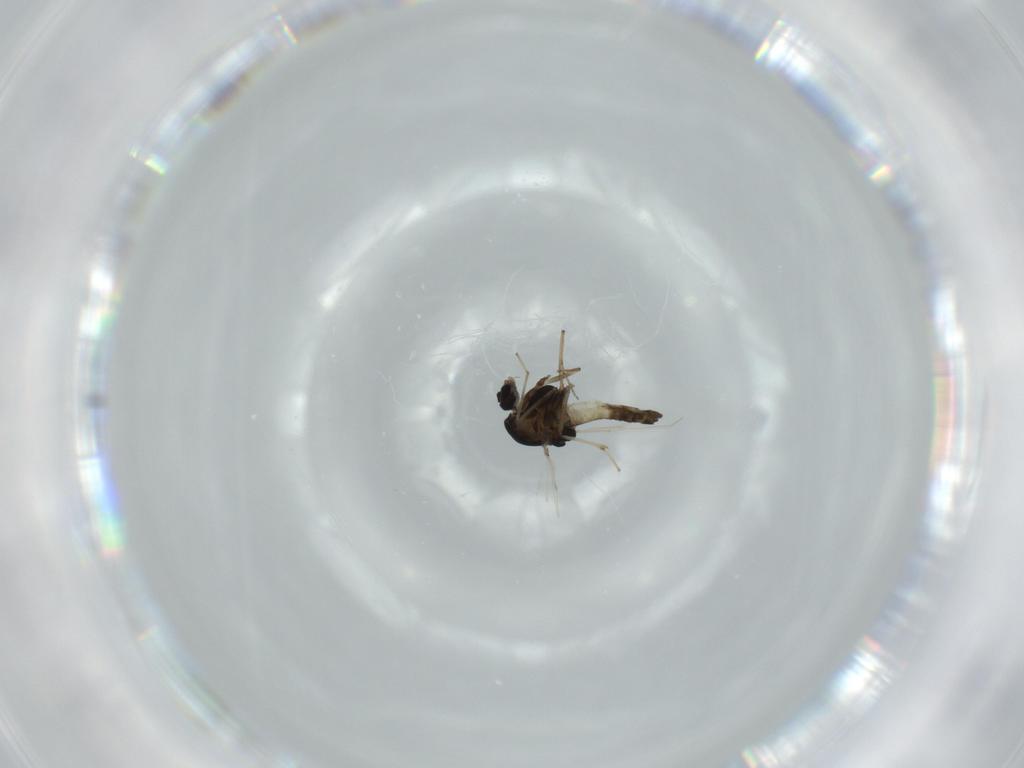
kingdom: Animalia
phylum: Arthropoda
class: Insecta
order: Diptera
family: Chironomidae
